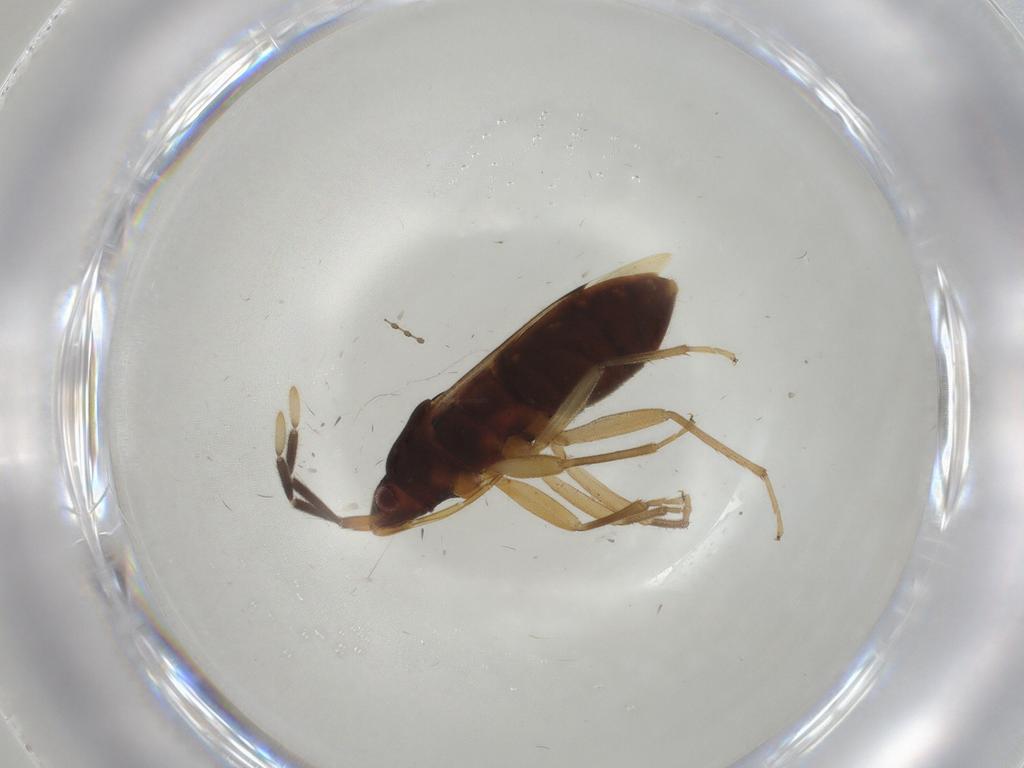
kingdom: Animalia
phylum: Arthropoda
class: Insecta
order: Hemiptera
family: Rhyparochromidae
